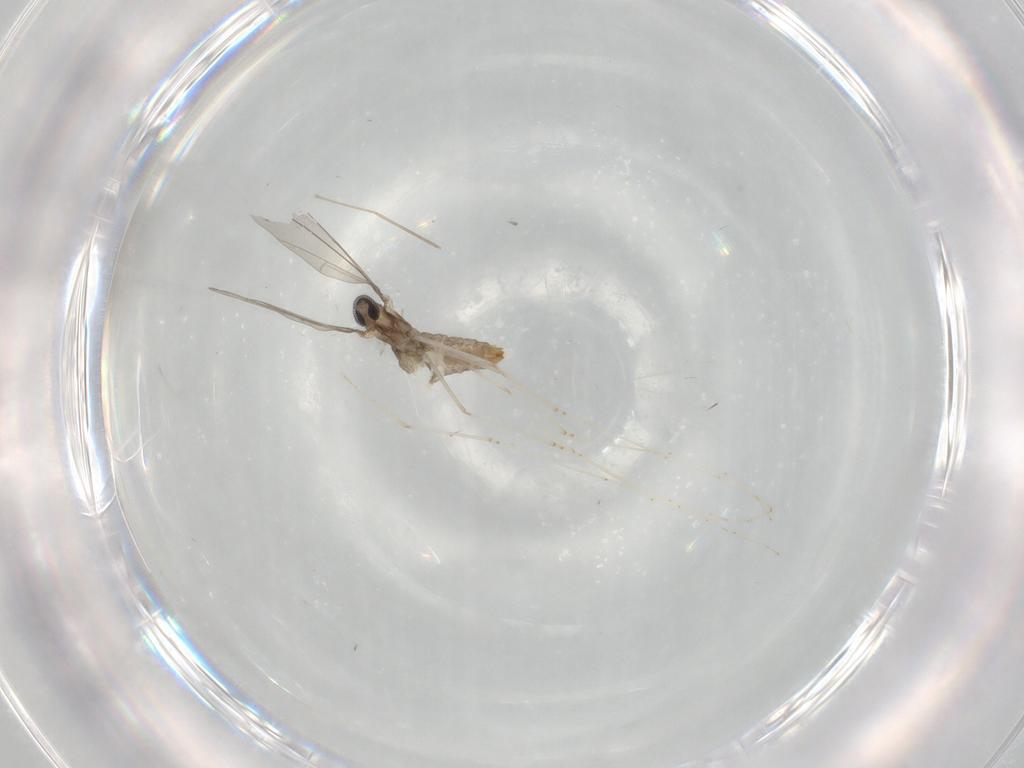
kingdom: Animalia
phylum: Arthropoda
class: Insecta
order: Diptera
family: Cecidomyiidae
